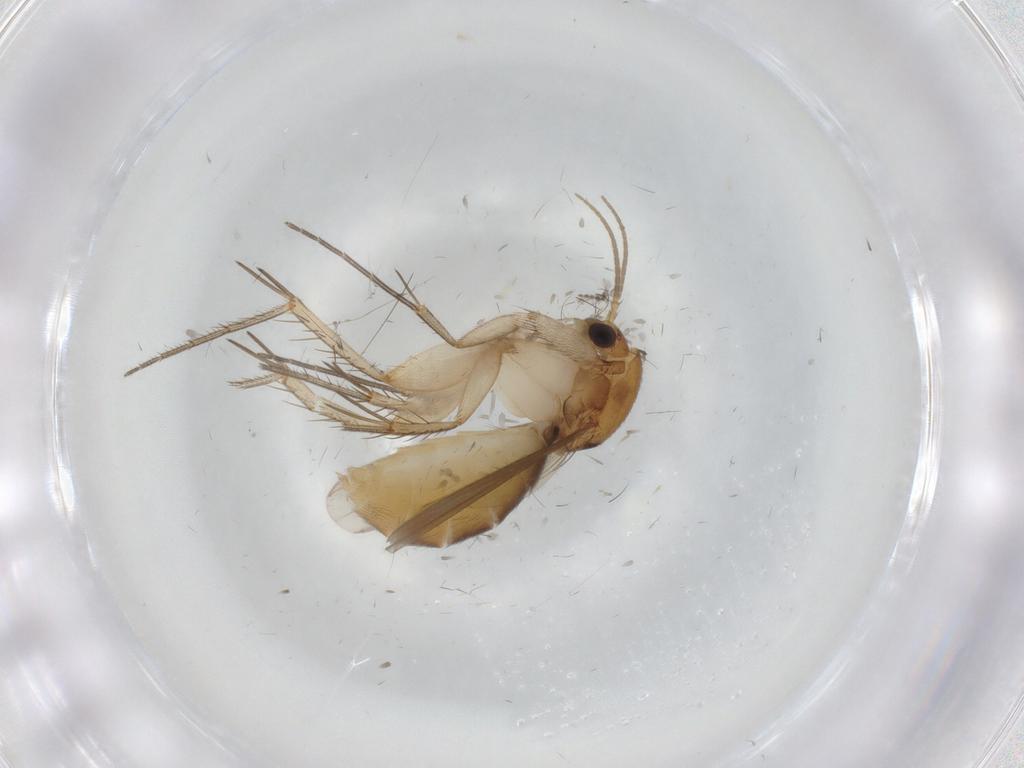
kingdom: Animalia
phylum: Arthropoda
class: Insecta
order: Diptera
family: Mycetophilidae
